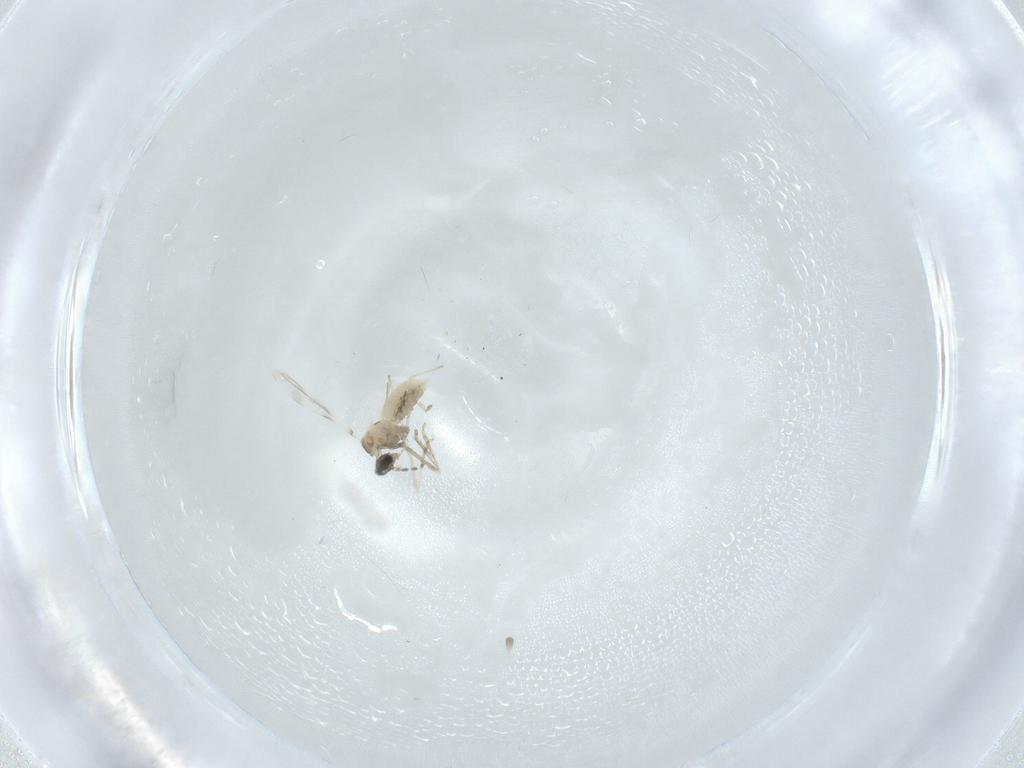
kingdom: Animalia
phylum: Arthropoda
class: Insecta
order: Diptera
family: Cecidomyiidae
